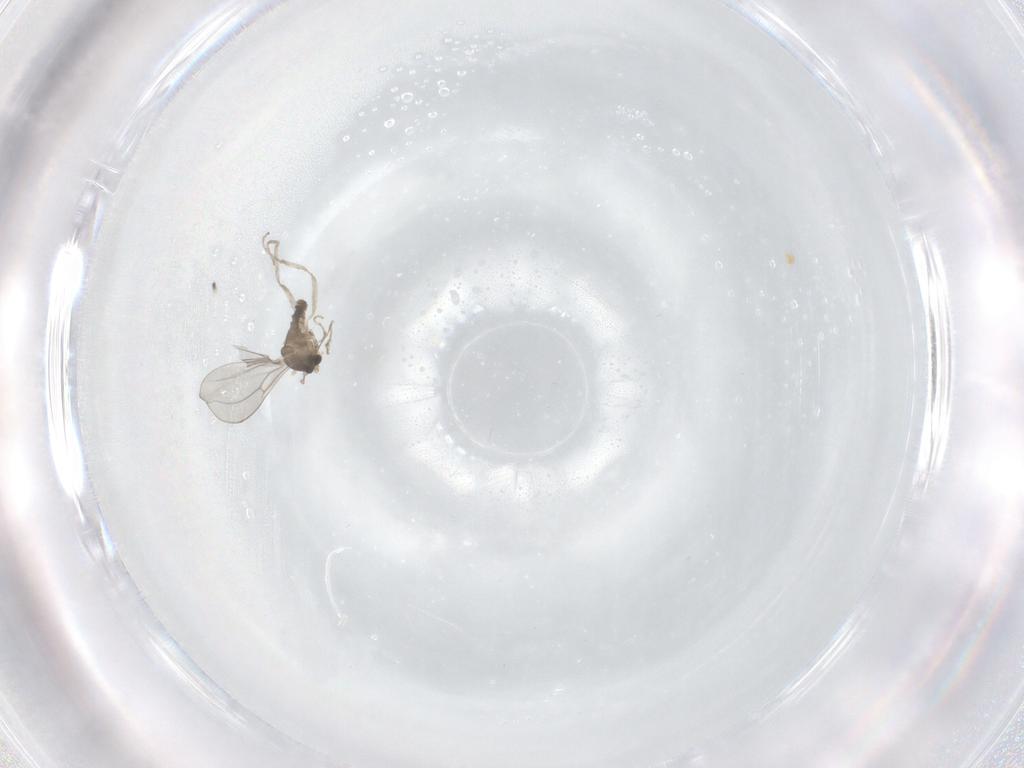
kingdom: Animalia
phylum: Arthropoda
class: Insecta
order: Diptera
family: Cecidomyiidae
